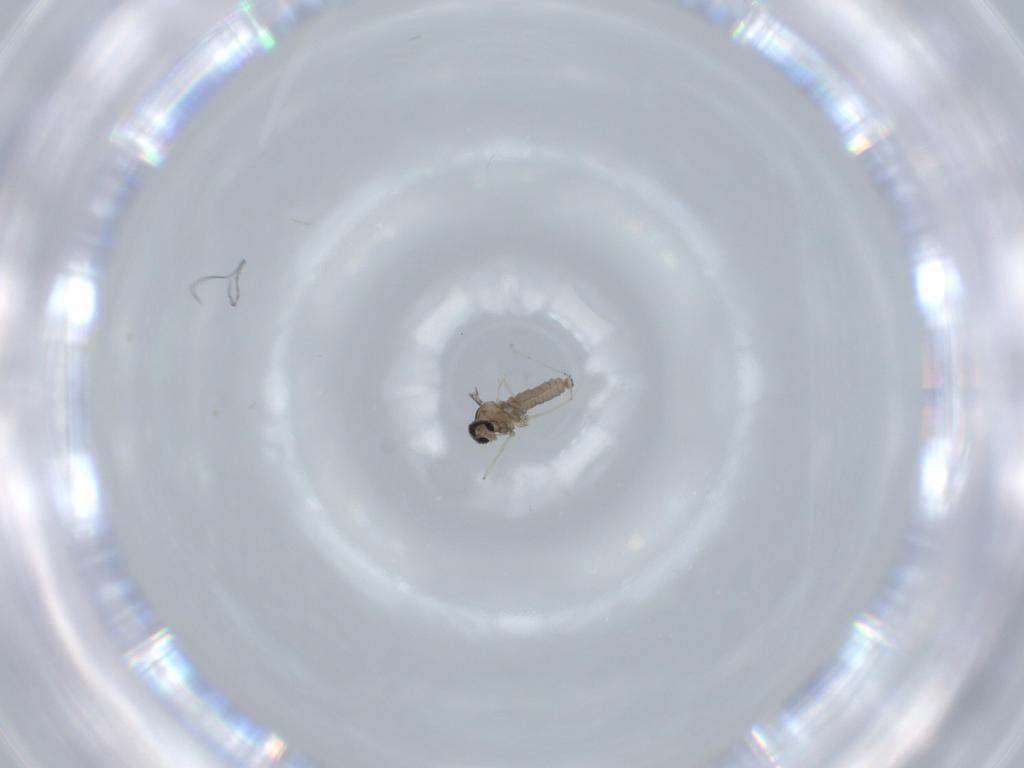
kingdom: Animalia
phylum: Arthropoda
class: Insecta
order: Diptera
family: Cecidomyiidae
